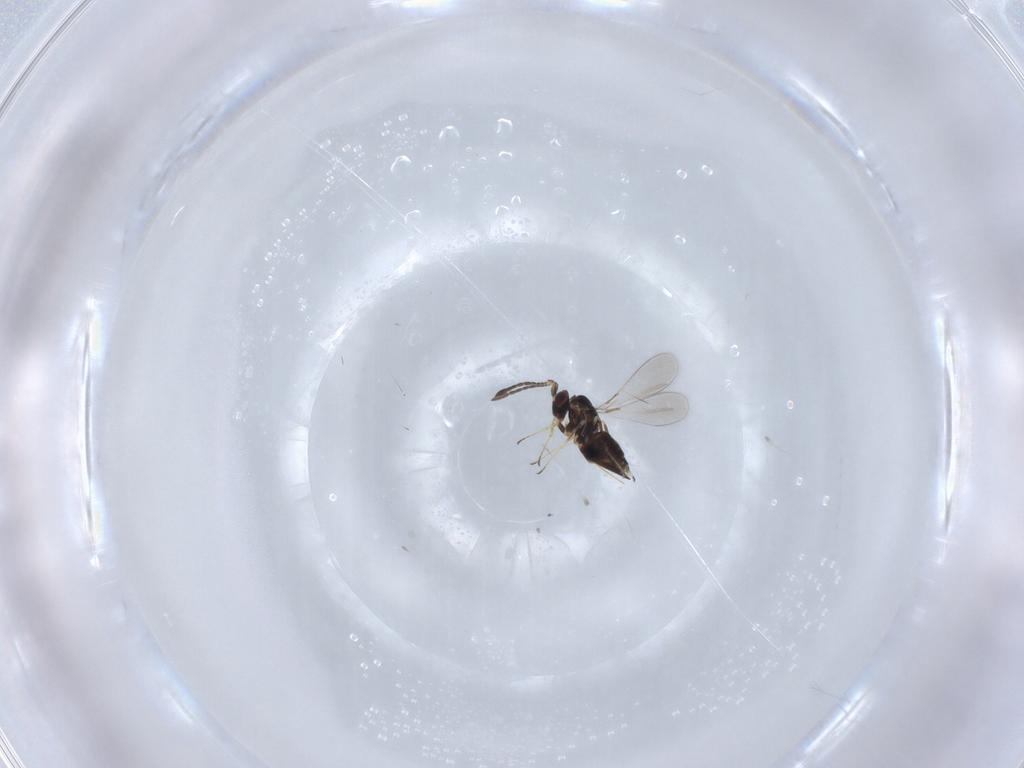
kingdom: Animalia
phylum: Arthropoda
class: Insecta
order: Hymenoptera
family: Mymaridae
